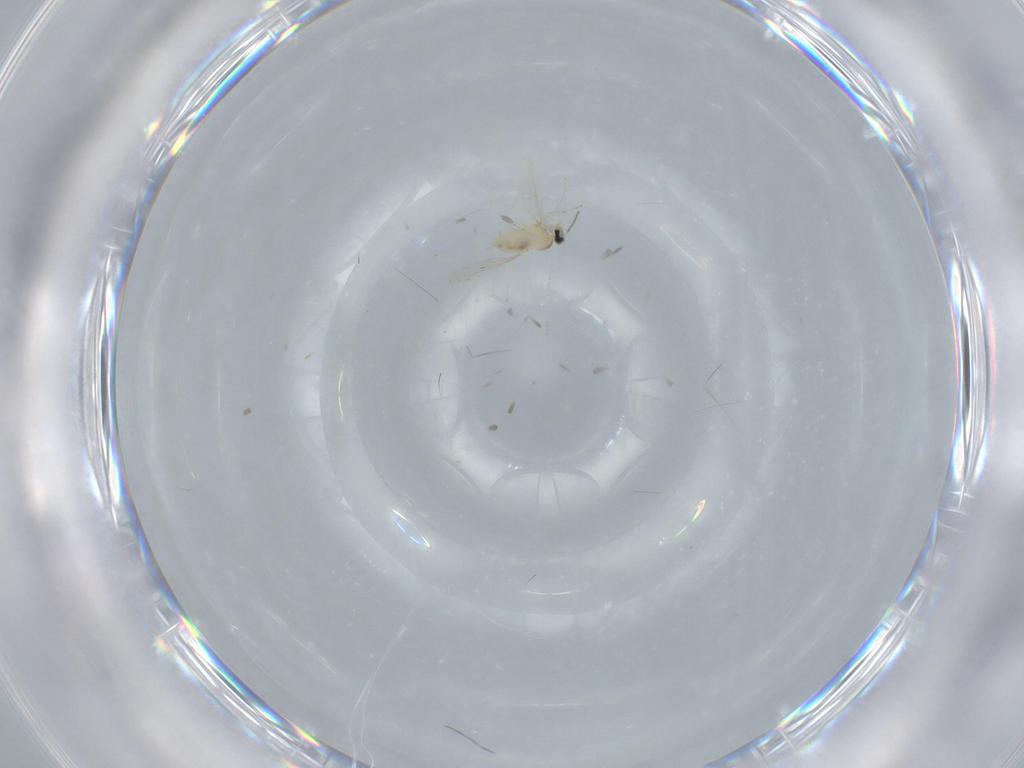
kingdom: Animalia
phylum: Arthropoda
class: Insecta
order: Diptera
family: Cecidomyiidae
